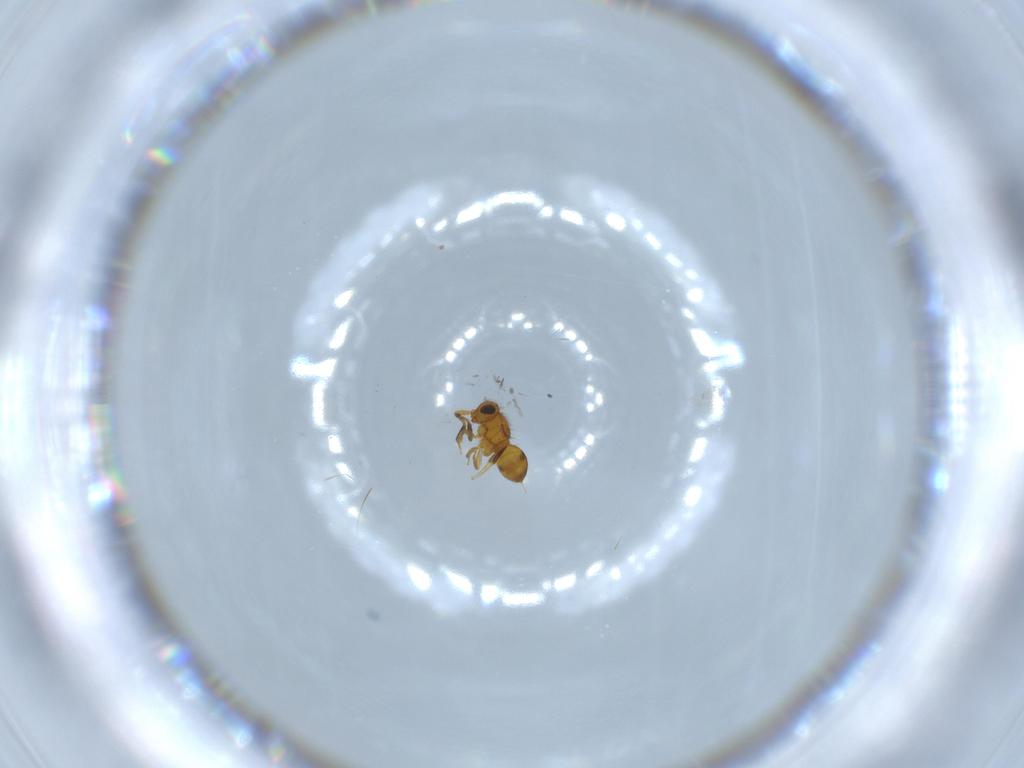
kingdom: Animalia
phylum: Arthropoda
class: Insecta
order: Hymenoptera
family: Scelionidae
